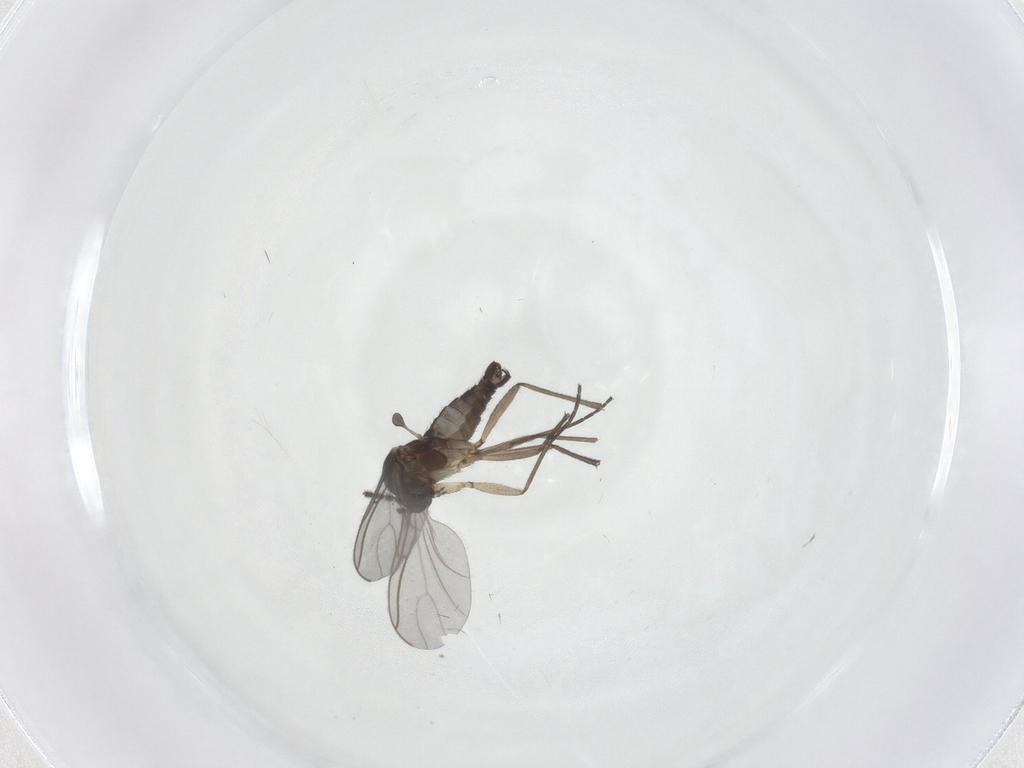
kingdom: Animalia
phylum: Arthropoda
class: Insecta
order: Diptera
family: Sciaridae
